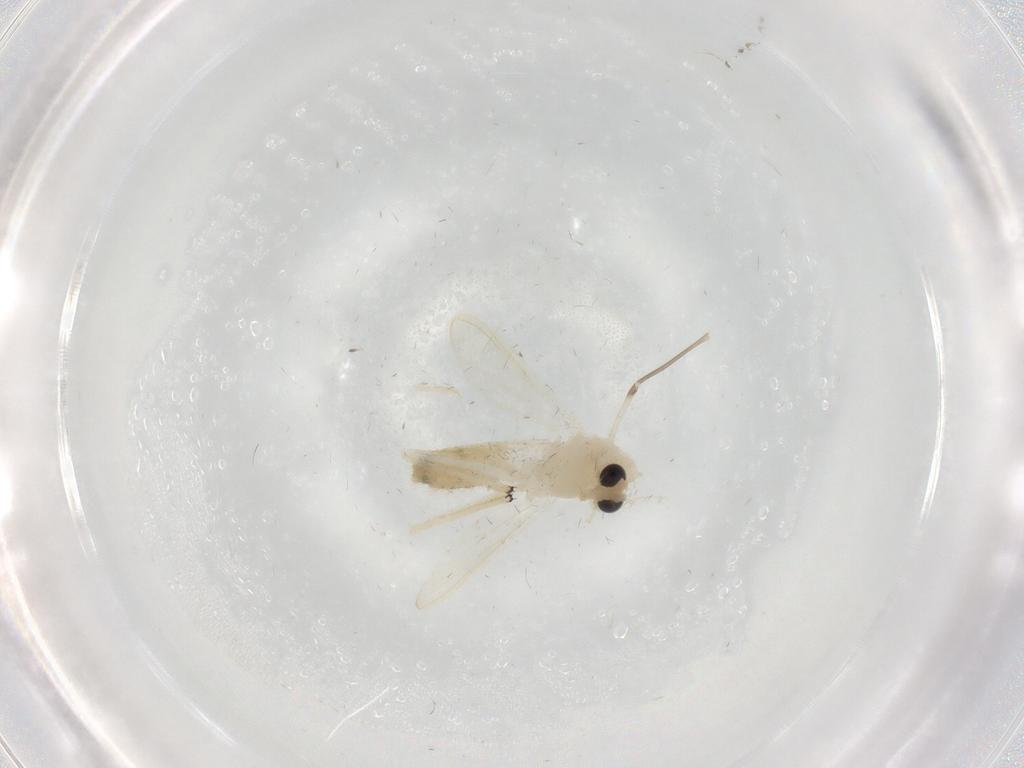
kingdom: Animalia
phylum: Arthropoda
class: Insecta
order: Diptera
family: Chironomidae
